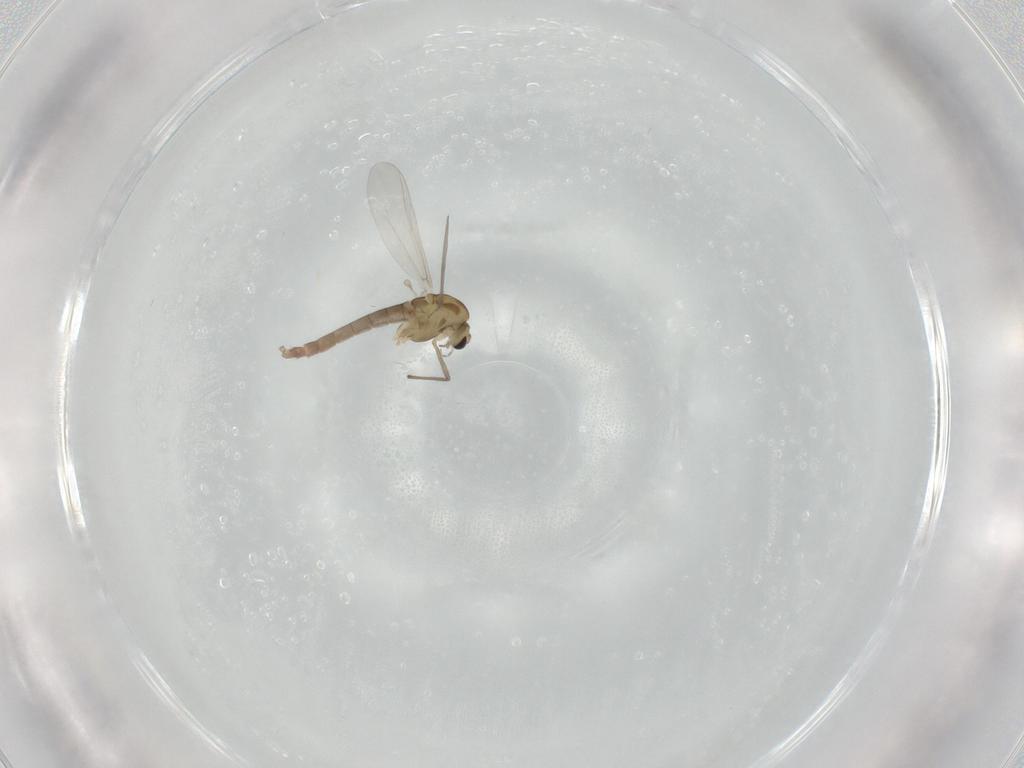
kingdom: Animalia
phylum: Arthropoda
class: Insecta
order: Diptera
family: Chironomidae
